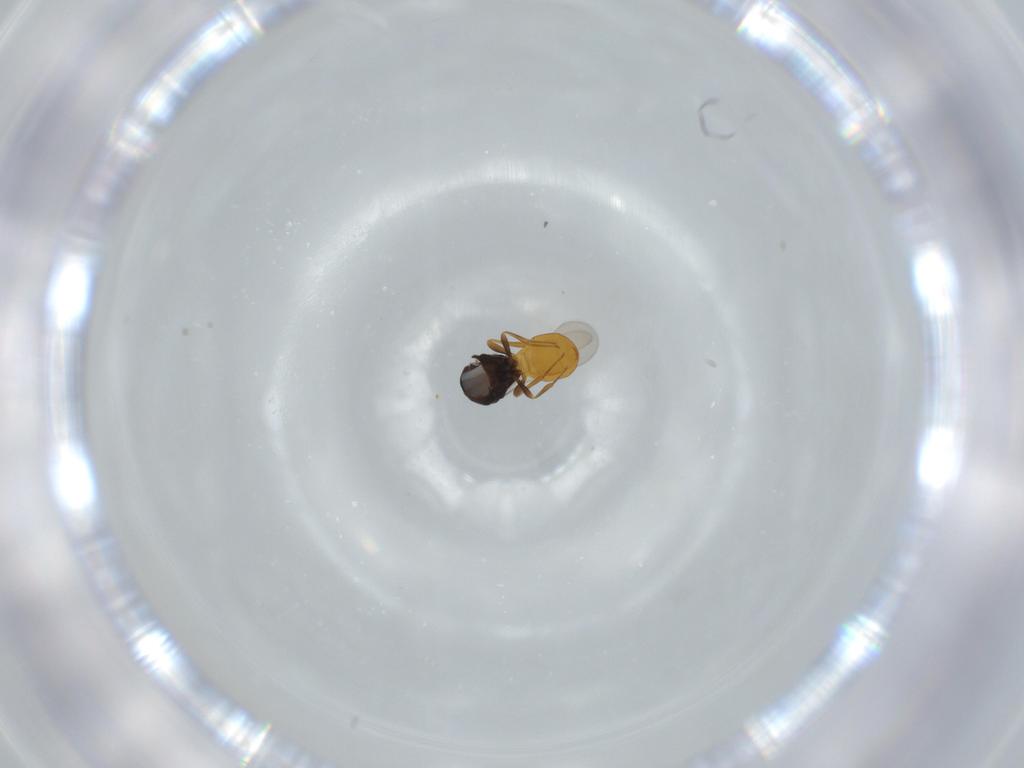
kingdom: Animalia
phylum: Arthropoda
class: Insecta
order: Hymenoptera
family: Scelionidae
